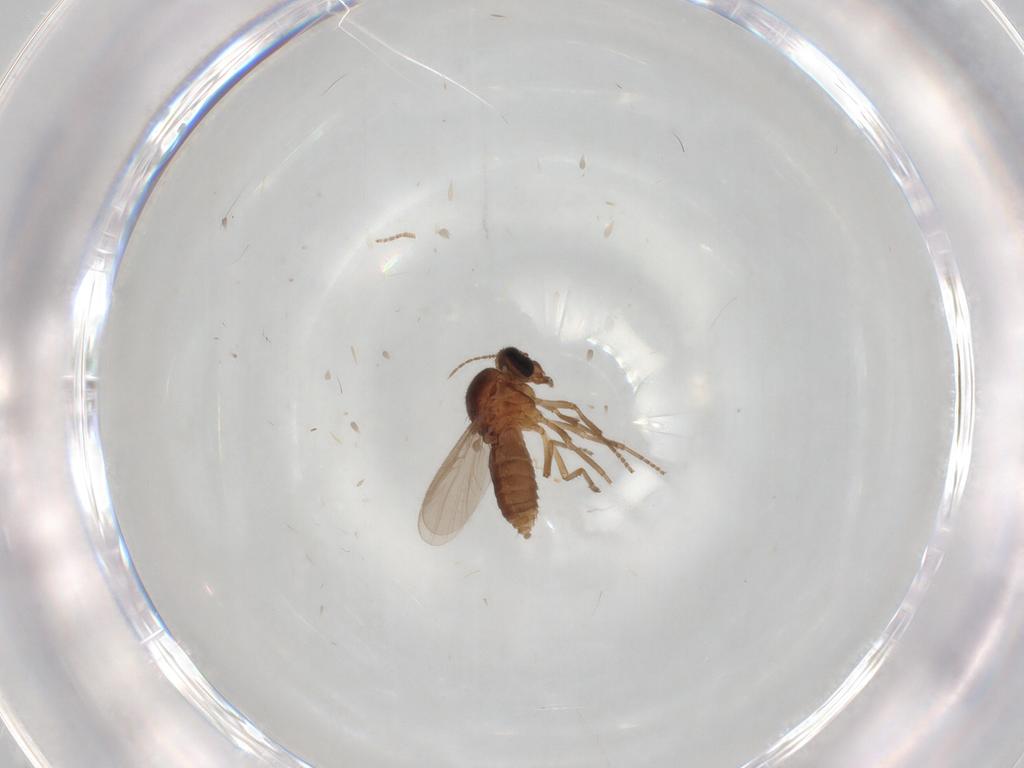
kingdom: Animalia
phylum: Arthropoda
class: Insecta
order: Diptera
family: Ceratopogonidae
